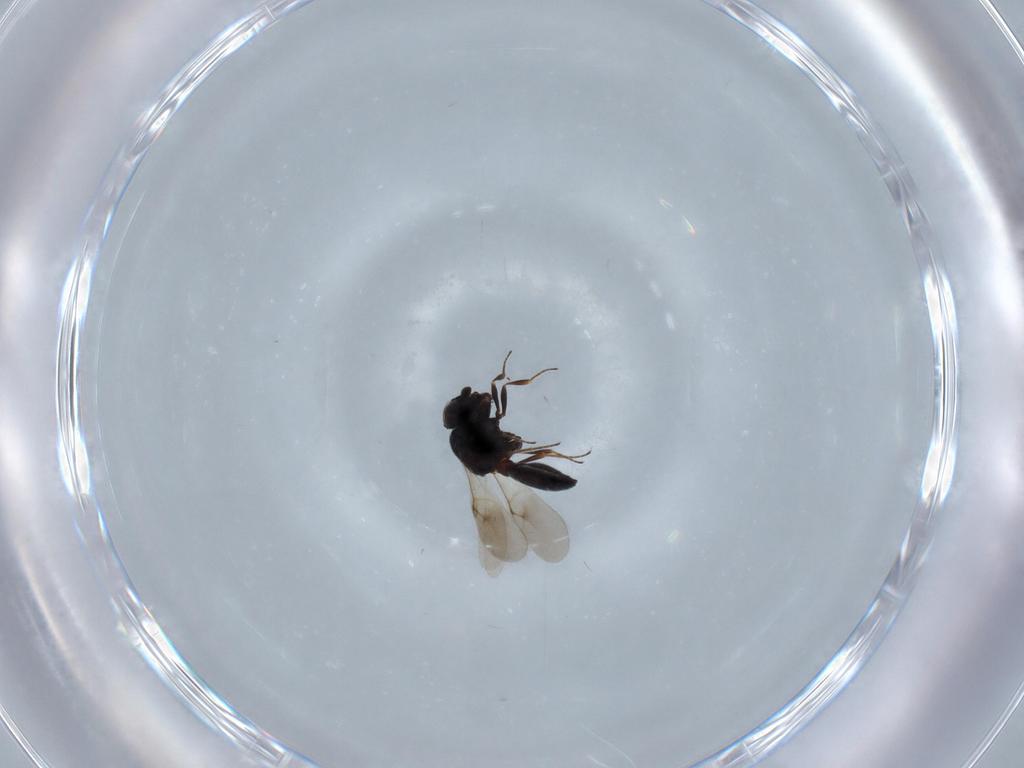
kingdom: Animalia
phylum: Arthropoda
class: Insecta
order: Hymenoptera
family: Scelionidae
